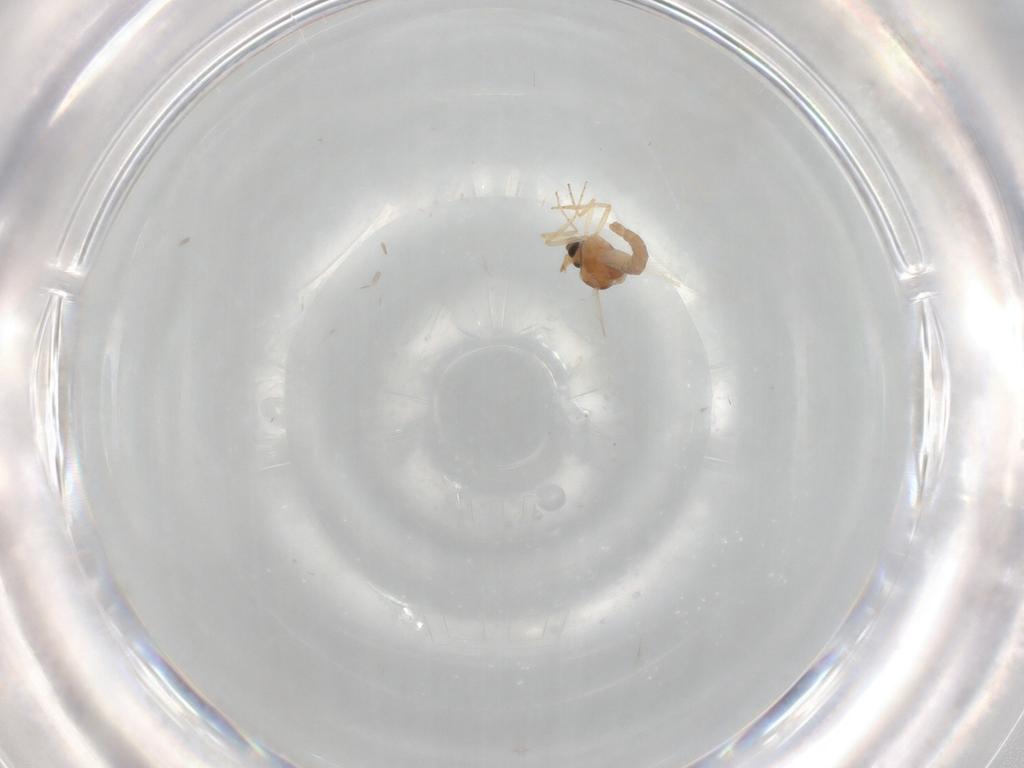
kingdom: Animalia
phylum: Arthropoda
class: Insecta
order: Diptera
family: Cecidomyiidae
